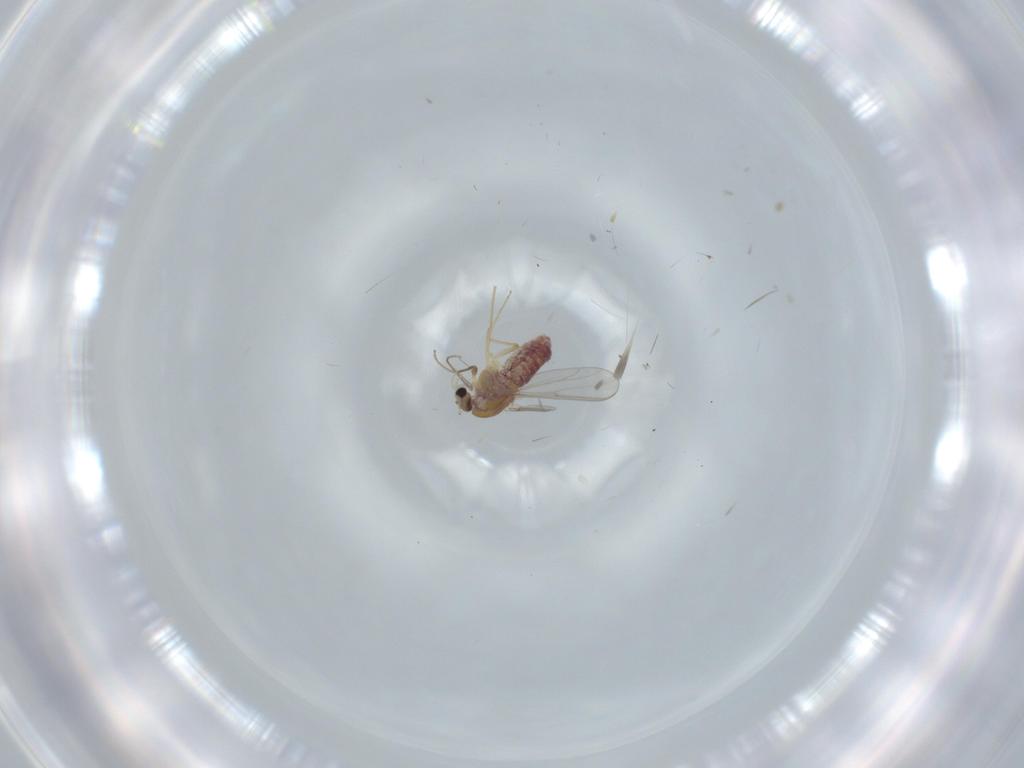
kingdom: Animalia
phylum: Arthropoda
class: Insecta
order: Diptera
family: Chironomidae
